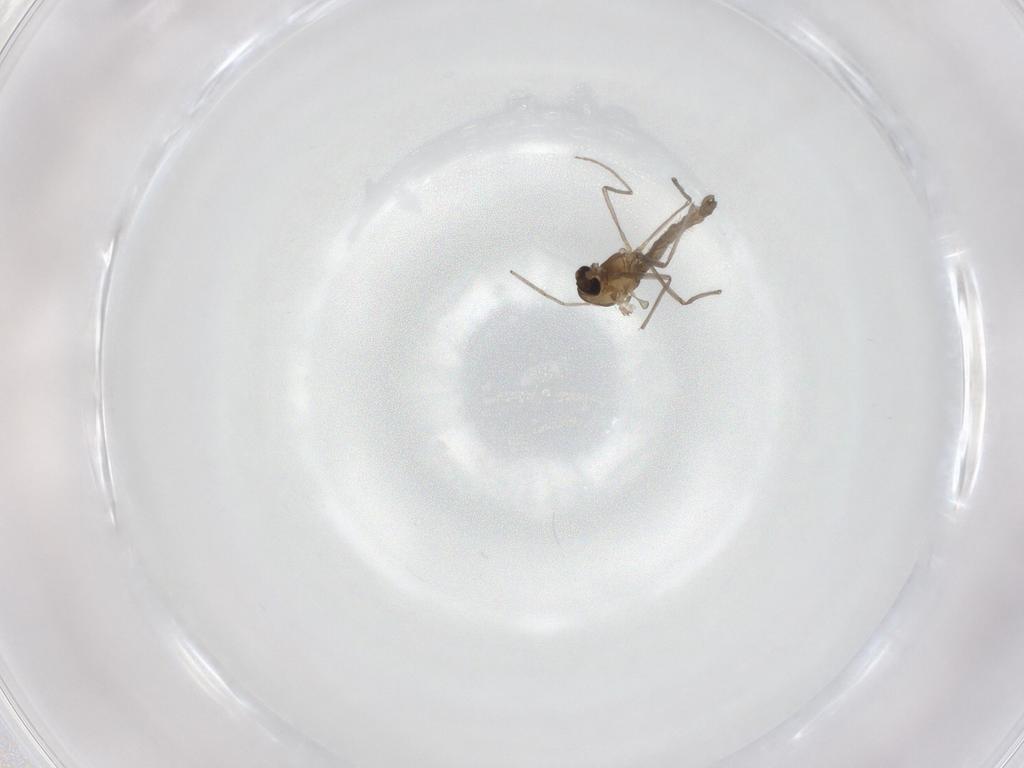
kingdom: Animalia
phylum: Arthropoda
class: Insecta
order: Diptera
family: Chironomidae
